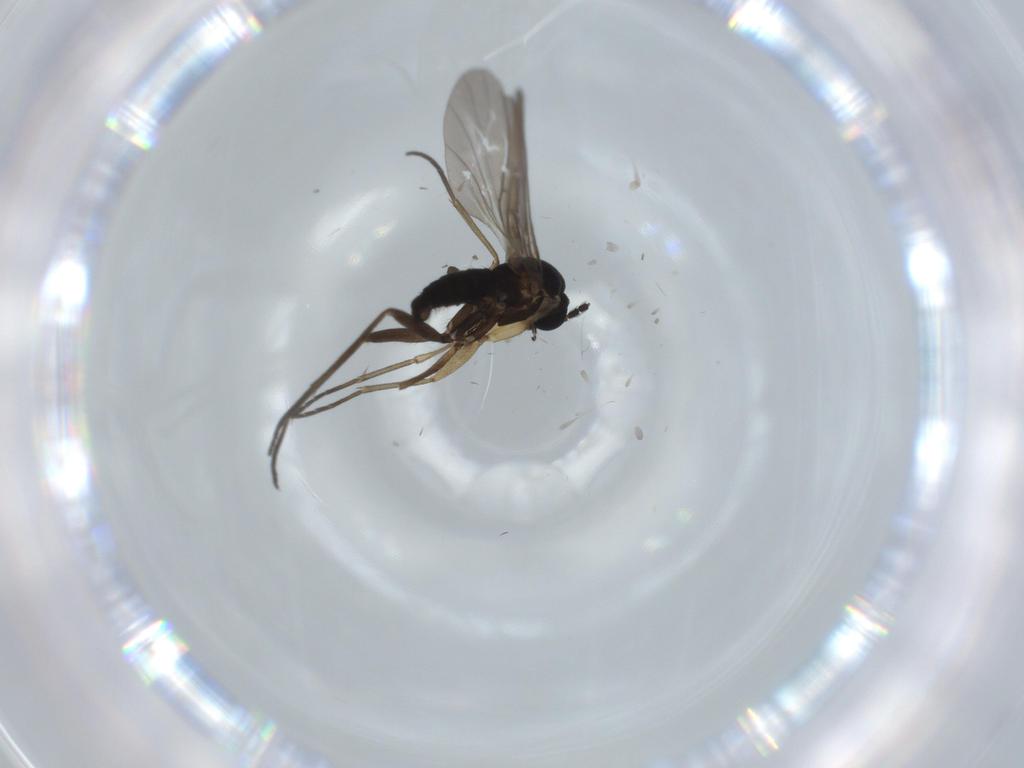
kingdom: Animalia
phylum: Arthropoda
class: Insecta
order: Diptera
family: Sciaridae
